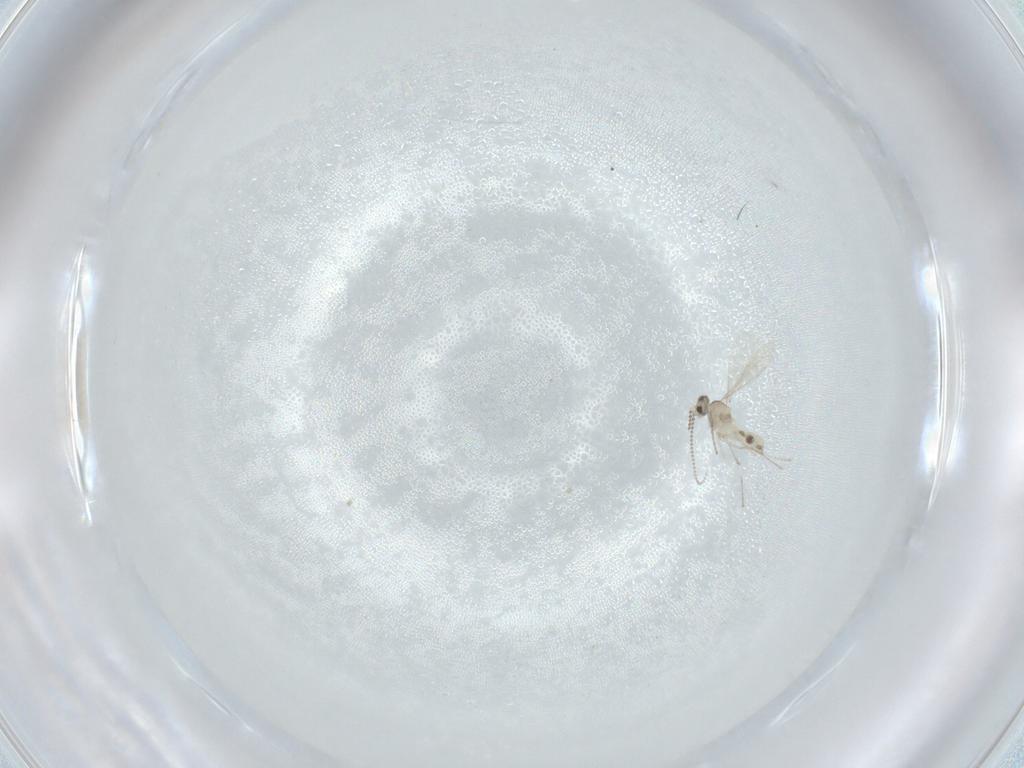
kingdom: Animalia
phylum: Arthropoda
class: Insecta
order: Diptera
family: Cecidomyiidae
